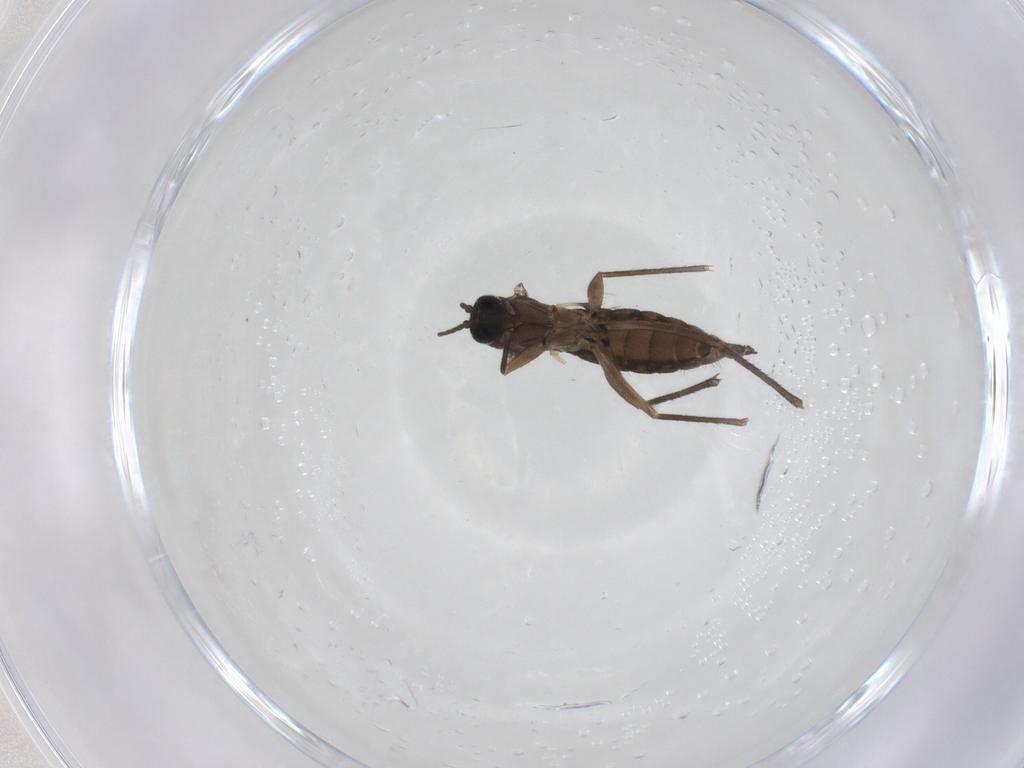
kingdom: Animalia
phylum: Arthropoda
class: Insecta
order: Diptera
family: Sciaridae
